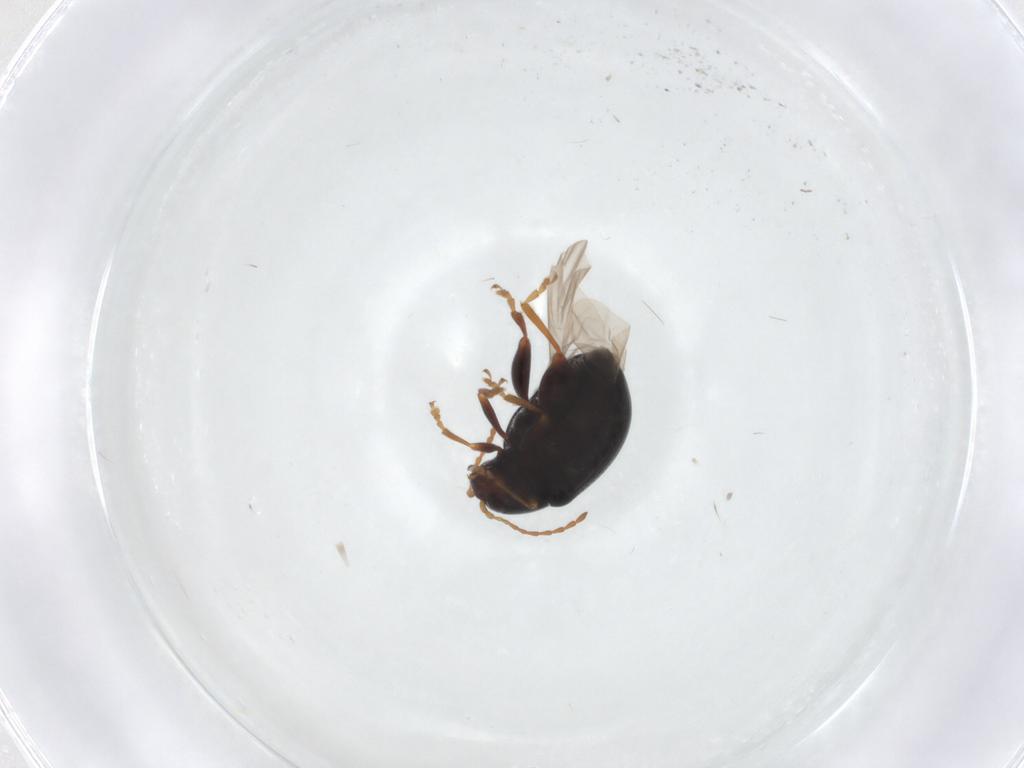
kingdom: Animalia
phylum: Arthropoda
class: Insecta
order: Coleoptera
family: Chrysomelidae
